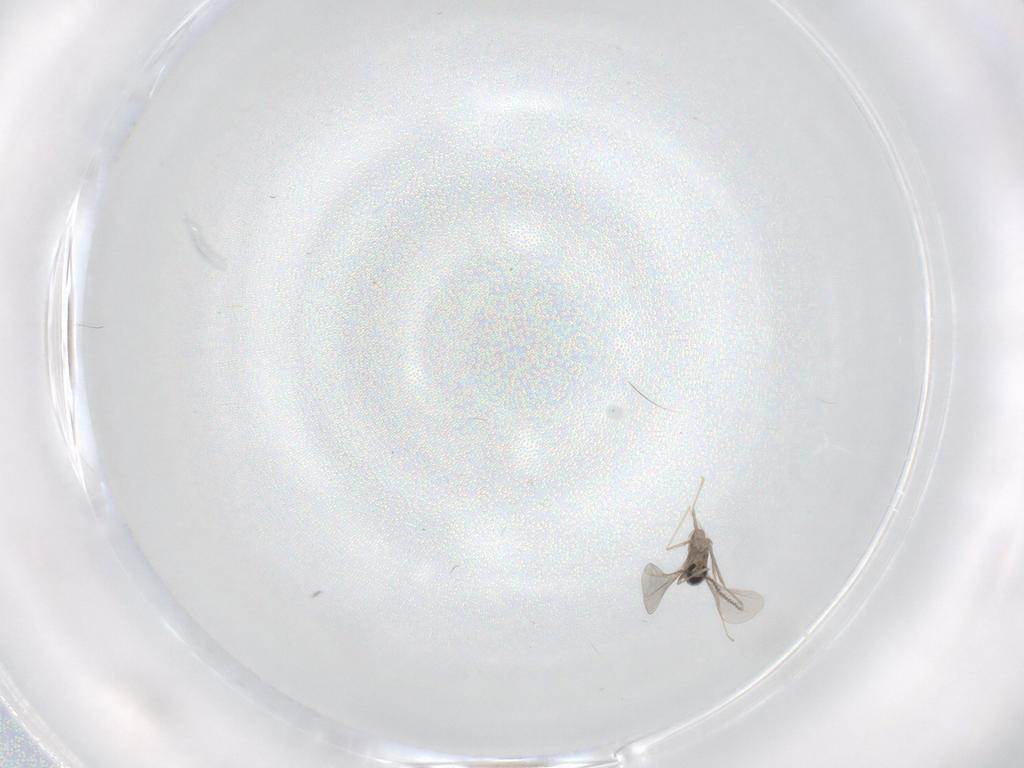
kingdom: Animalia
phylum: Arthropoda
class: Insecta
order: Diptera
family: Cecidomyiidae
